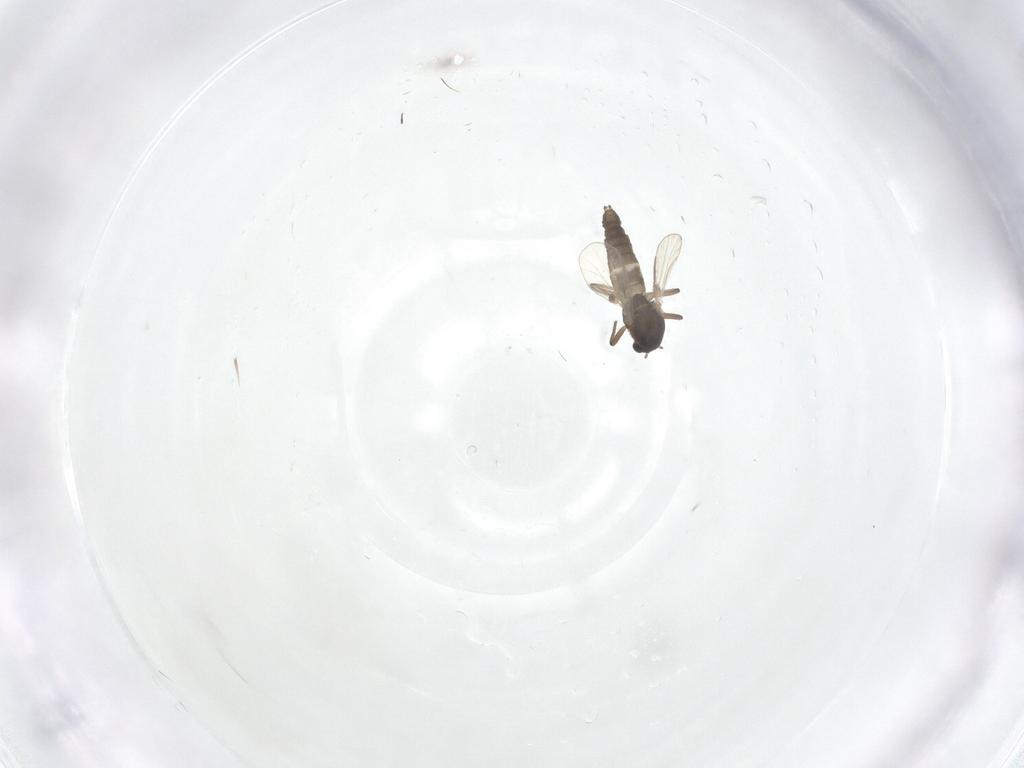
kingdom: Animalia
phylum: Arthropoda
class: Insecta
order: Diptera
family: Chironomidae
